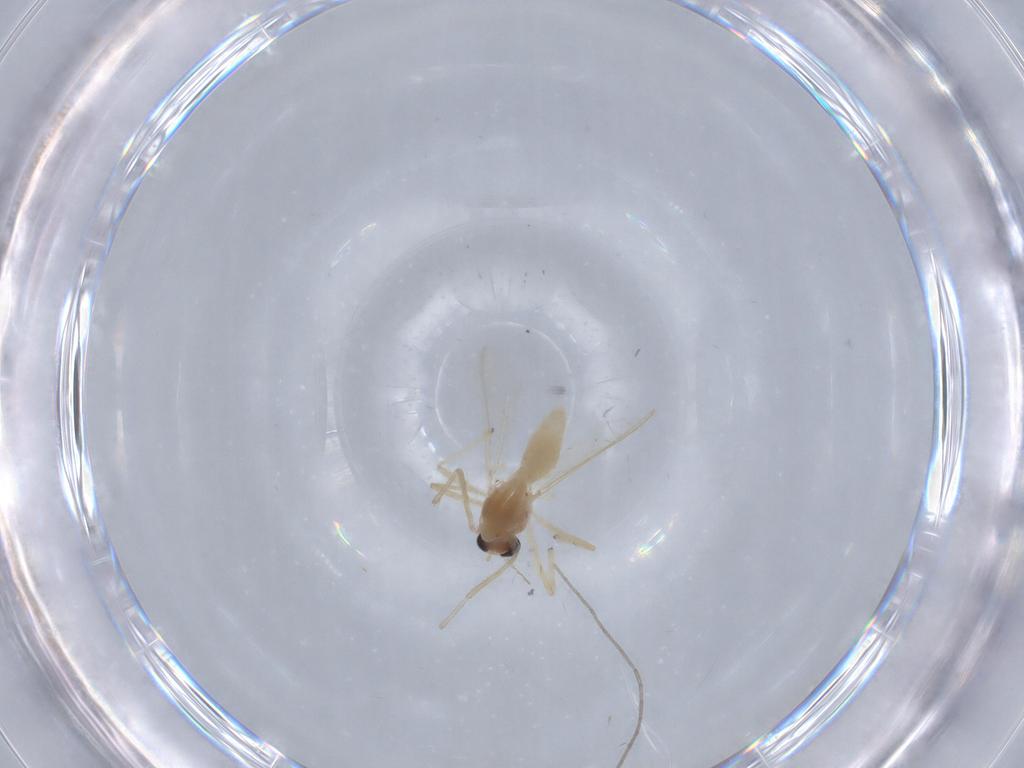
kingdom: Animalia
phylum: Arthropoda
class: Insecta
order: Diptera
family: Chironomidae
